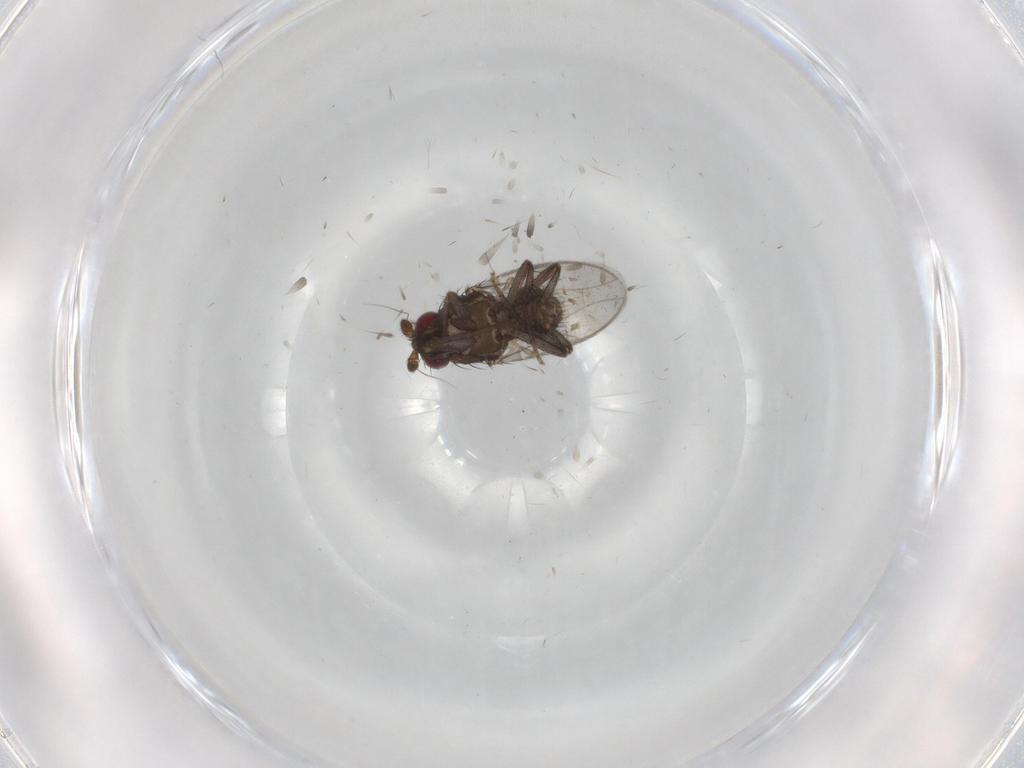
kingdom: Animalia
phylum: Arthropoda
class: Insecta
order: Diptera
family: Sphaeroceridae
